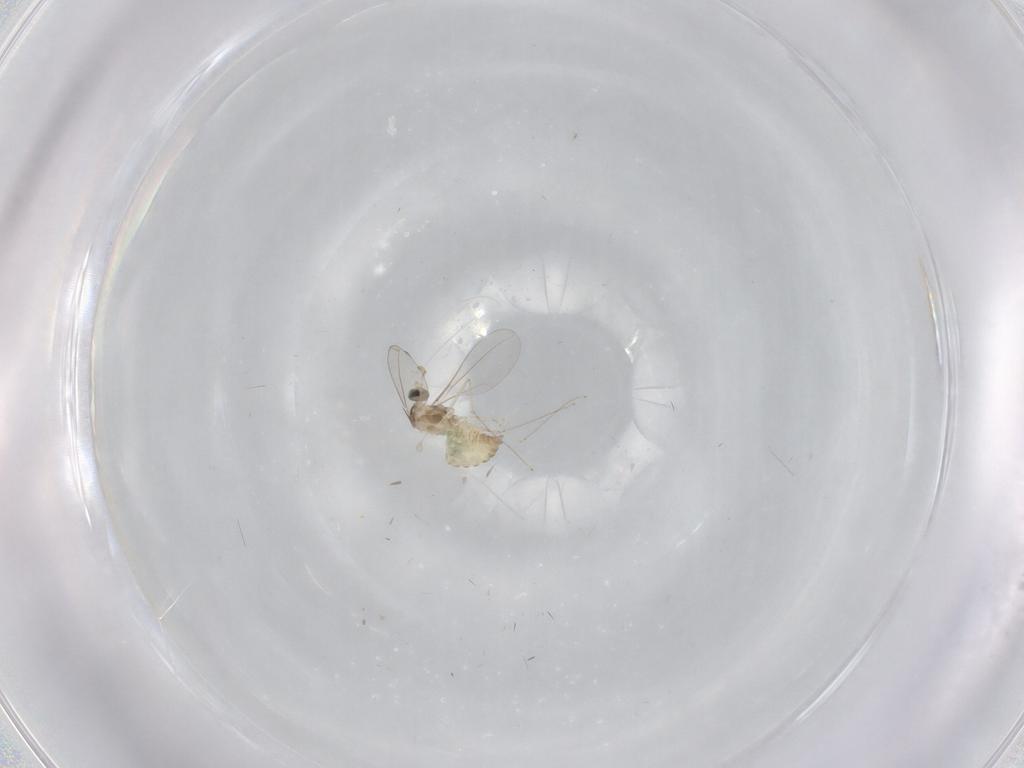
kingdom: Animalia
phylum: Arthropoda
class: Insecta
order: Diptera
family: Cecidomyiidae
